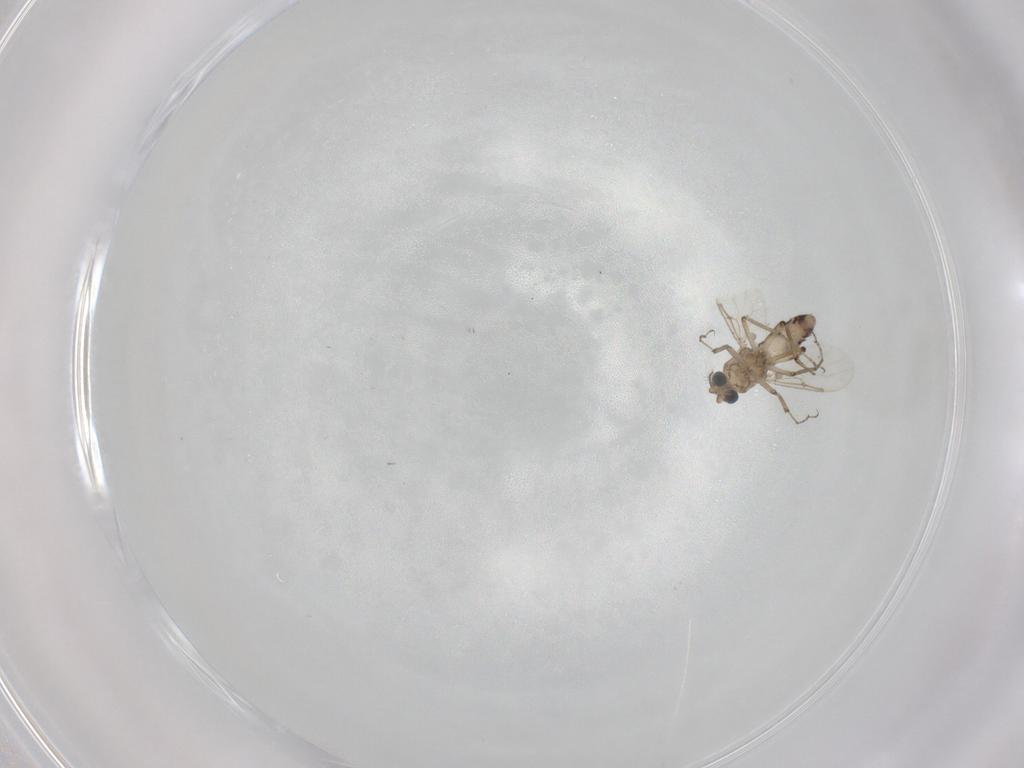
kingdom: Animalia
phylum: Arthropoda
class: Insecta
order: Diptera
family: Ceratopogonidae
